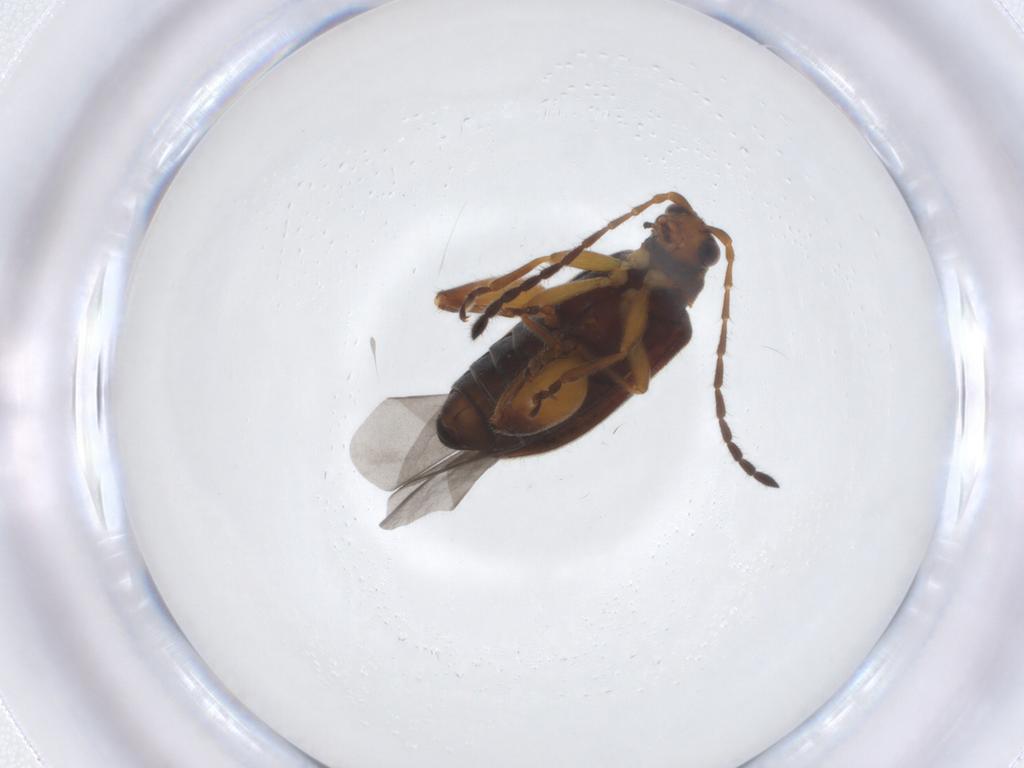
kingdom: Animalia
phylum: Arthropoda
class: Insecta
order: Coleoptera
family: Chrysomelidae
